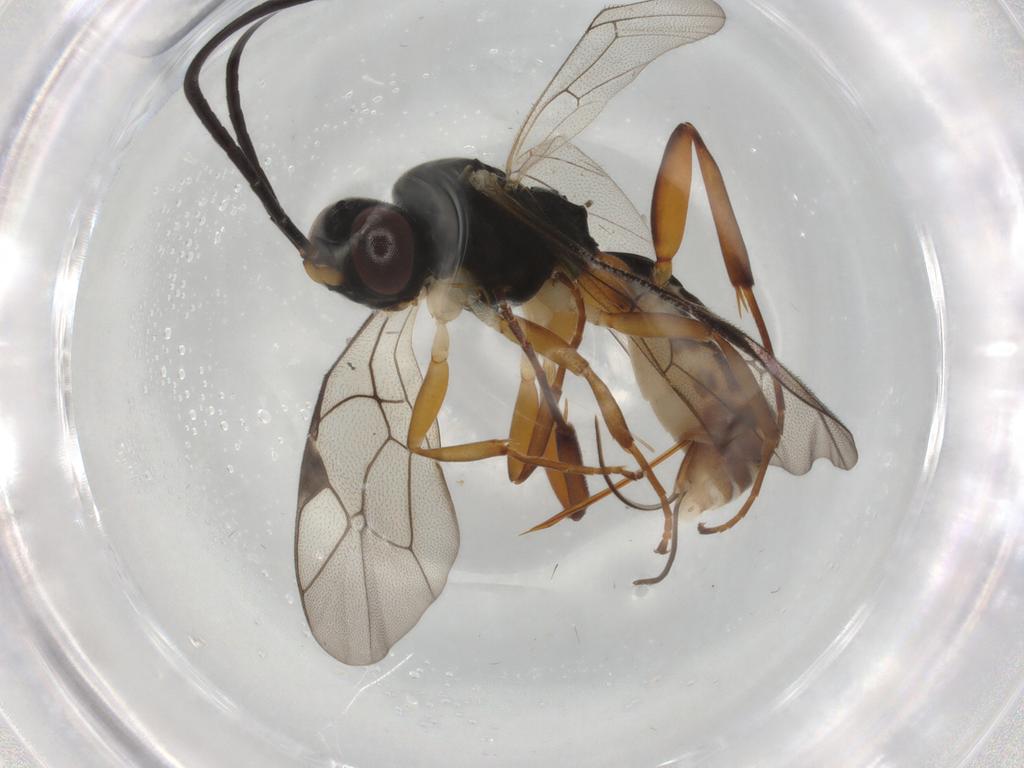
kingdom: Animalia
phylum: Arthropoda
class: Insecta
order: Hymenoptera
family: Scelionidae
